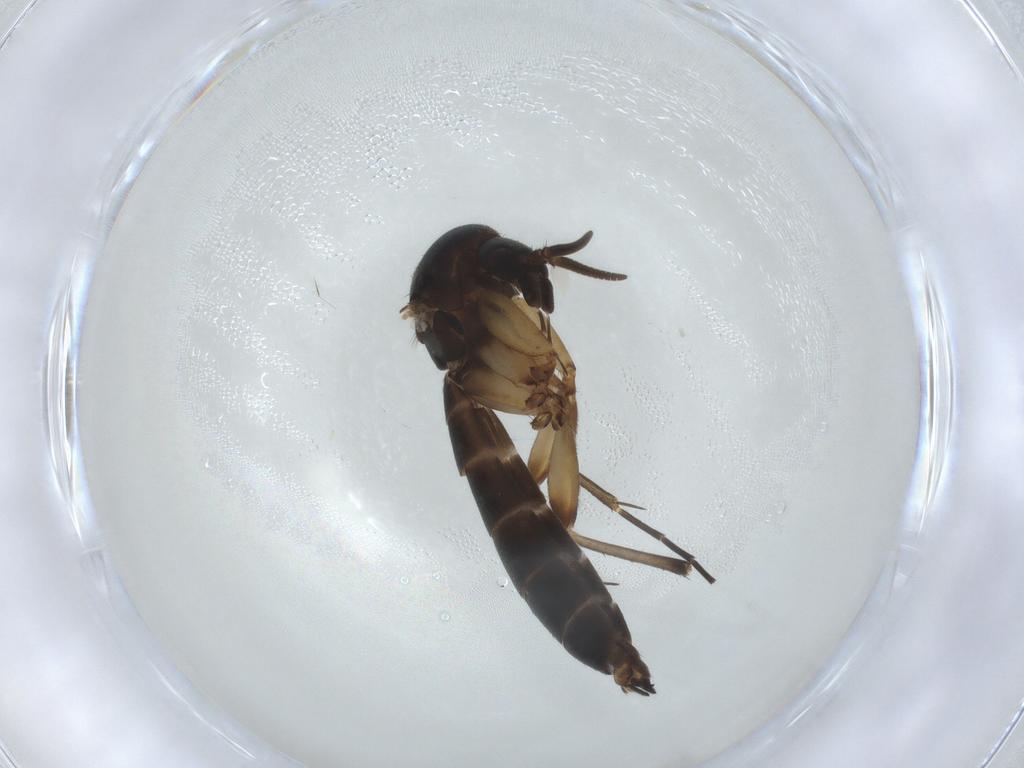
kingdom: Animalia
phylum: Arthropoda
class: Insecta
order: Diptera
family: Mycetophilidae
